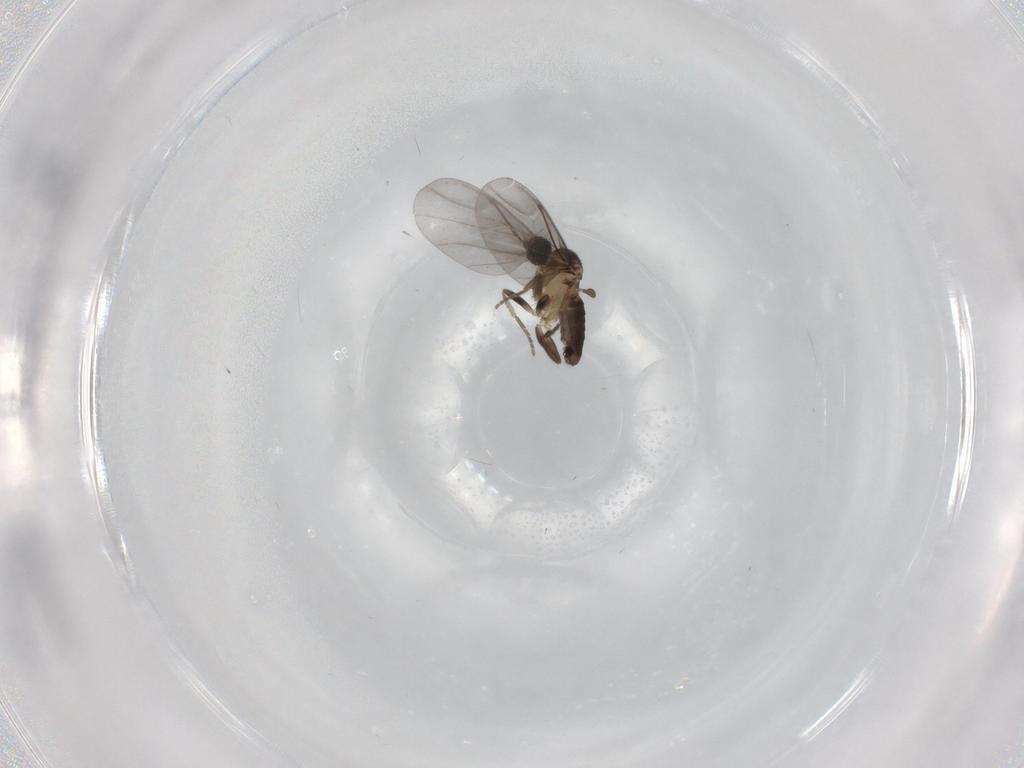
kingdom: Animalia
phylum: Arthropoda
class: Insecta
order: Diptera
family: Phoridae
